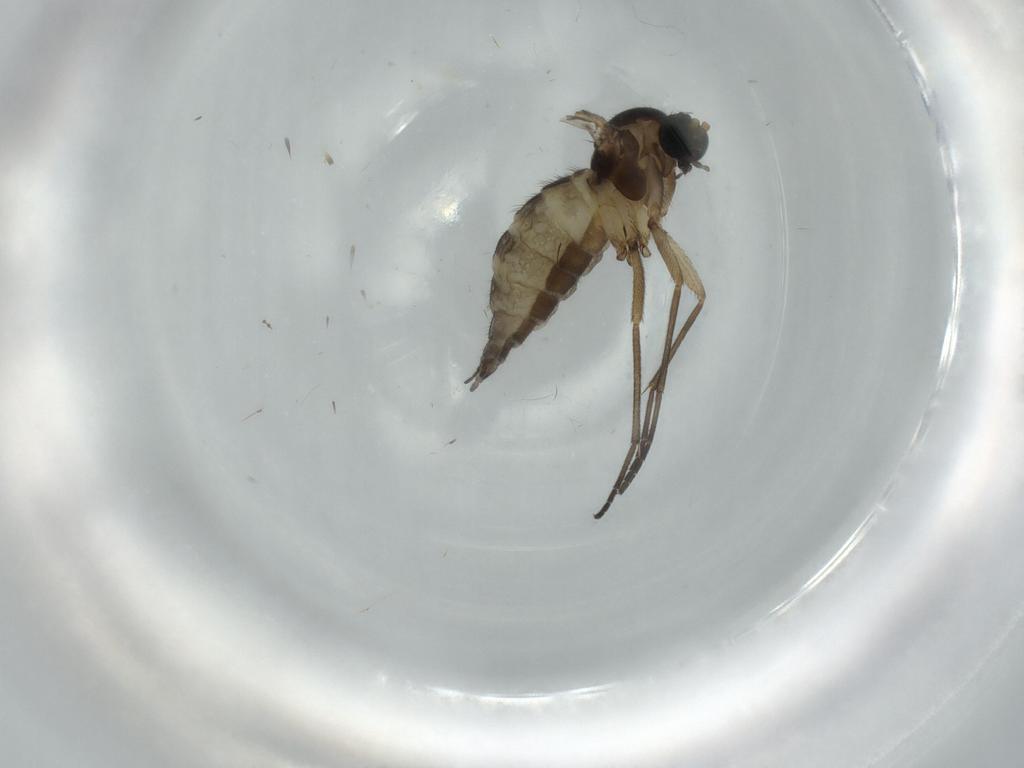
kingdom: Animalia
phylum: Arthropoda
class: Insecta
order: Diptera
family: Sciaridae
